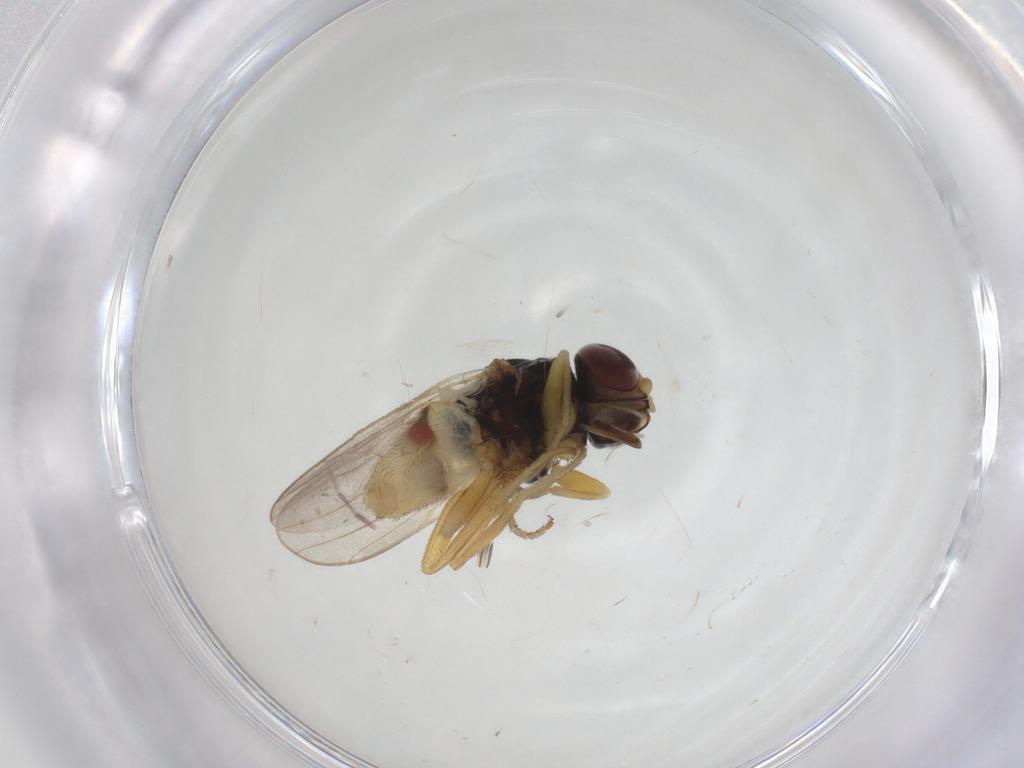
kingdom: Animalia
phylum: Arthropoda
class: Insecta
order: Diptera
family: Chloropidae
